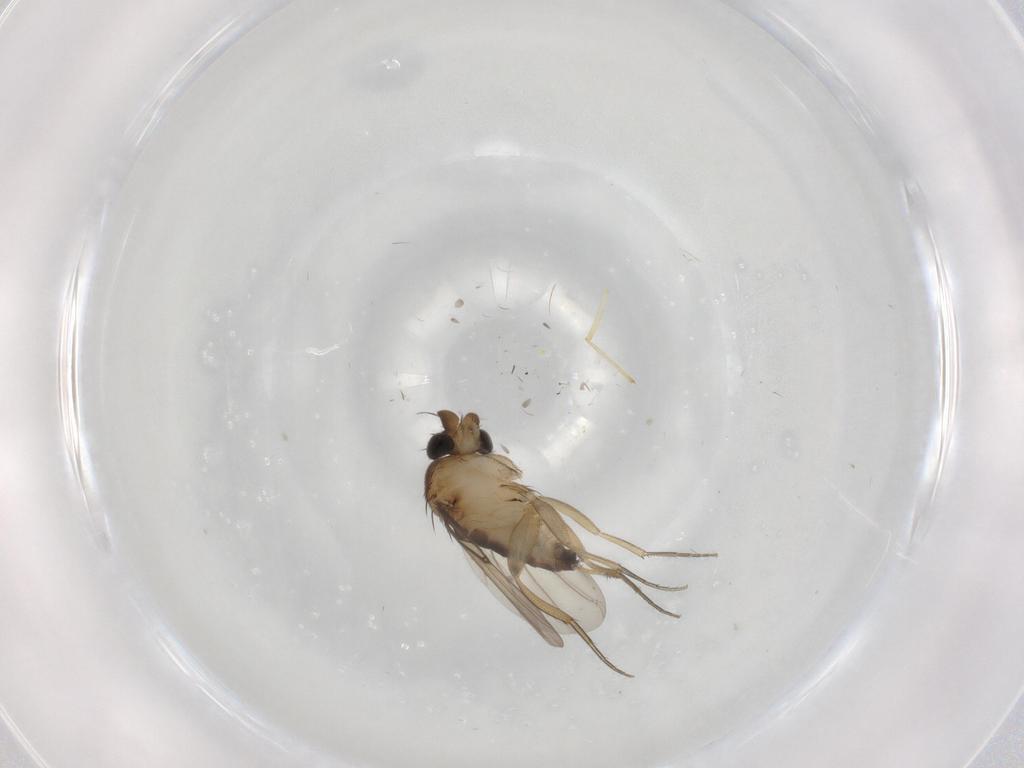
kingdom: Animalia
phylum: Arthropoda
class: Insecta
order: Diptera
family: Phoridae
